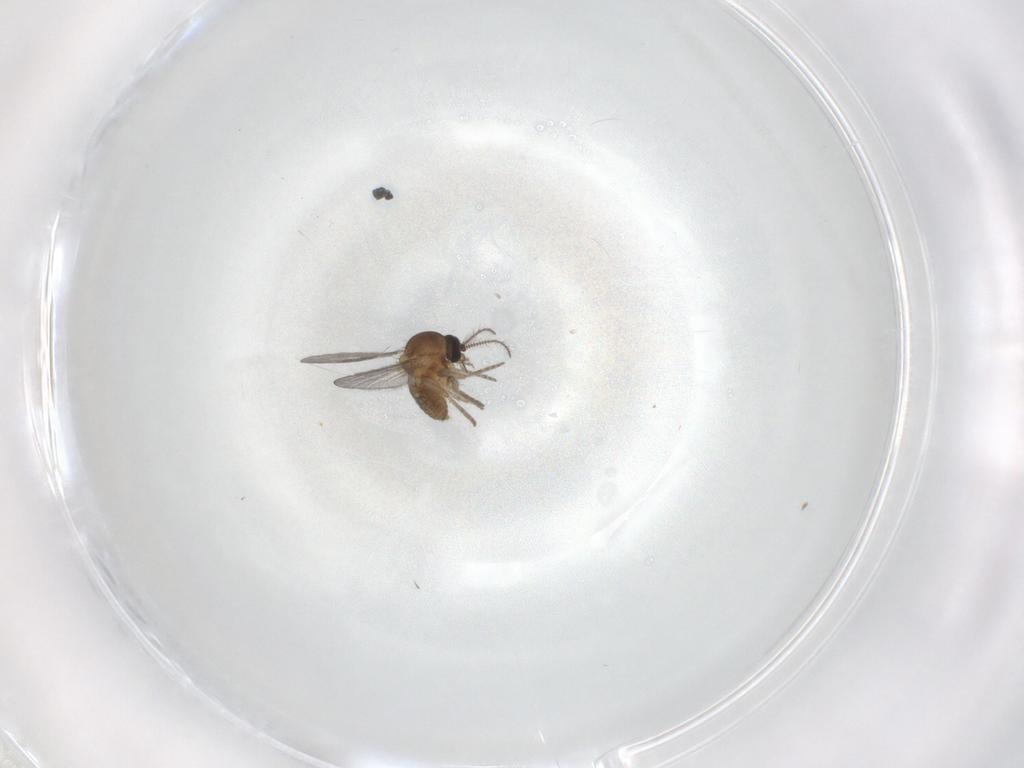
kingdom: Animalia
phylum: Arthropoda
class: Insecta
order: Diptera
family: Ceratopogonidae
